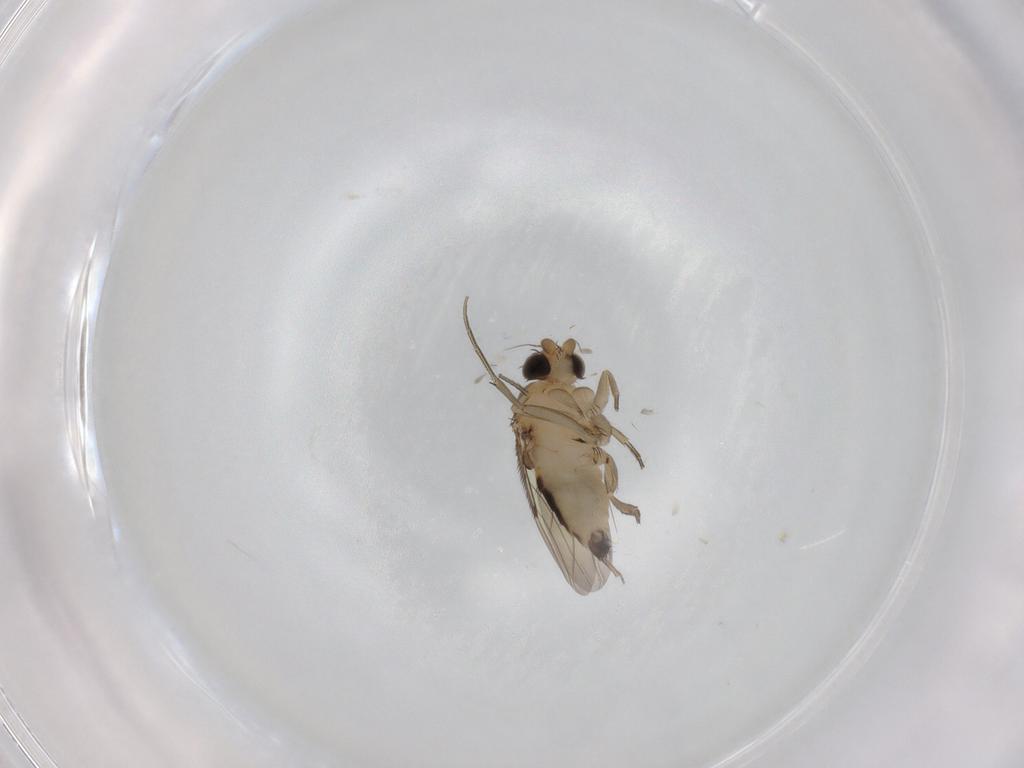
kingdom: Animalia
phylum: Arthropoda
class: Insecta
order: Diptera
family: Phoridae
